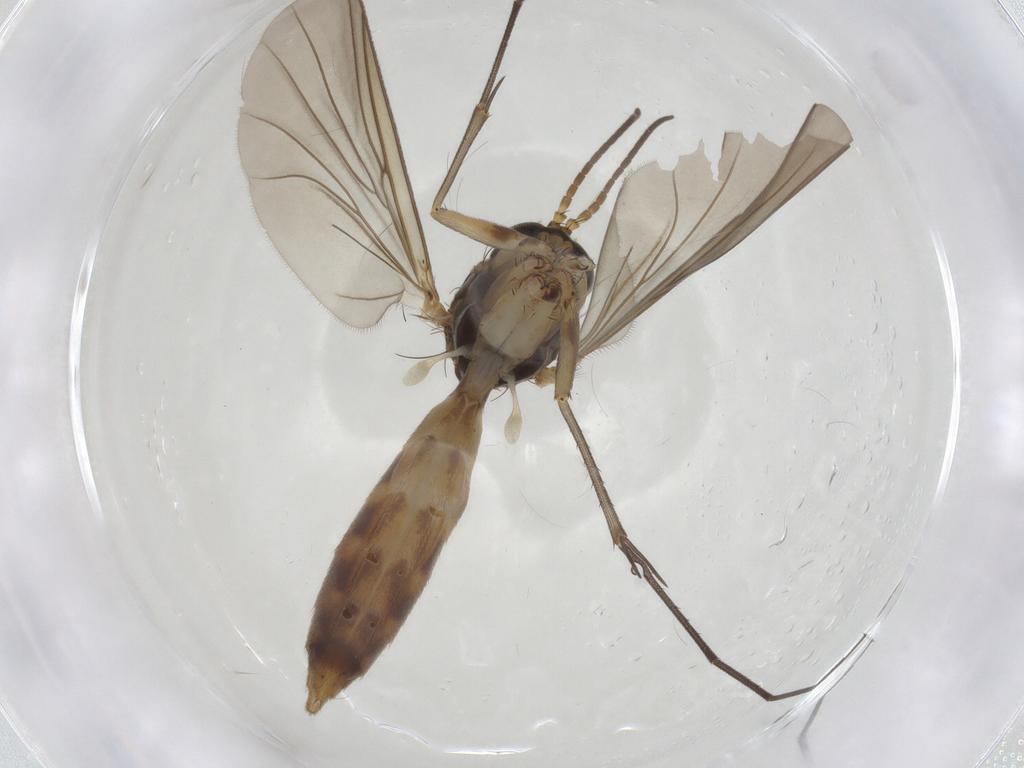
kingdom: Animalia
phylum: Arthropoda
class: Insecta
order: Diptera
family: Mycetophilidae
